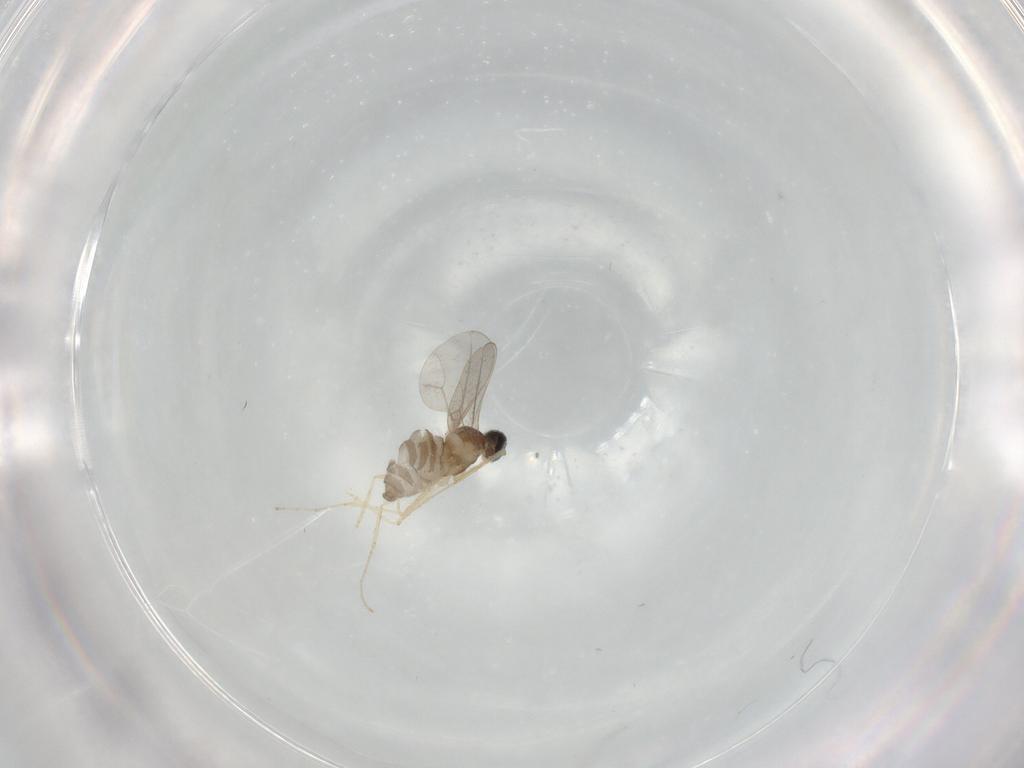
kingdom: Animalia
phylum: Arthropoda
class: Insecta
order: Diptera
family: Cecidomyiidae
